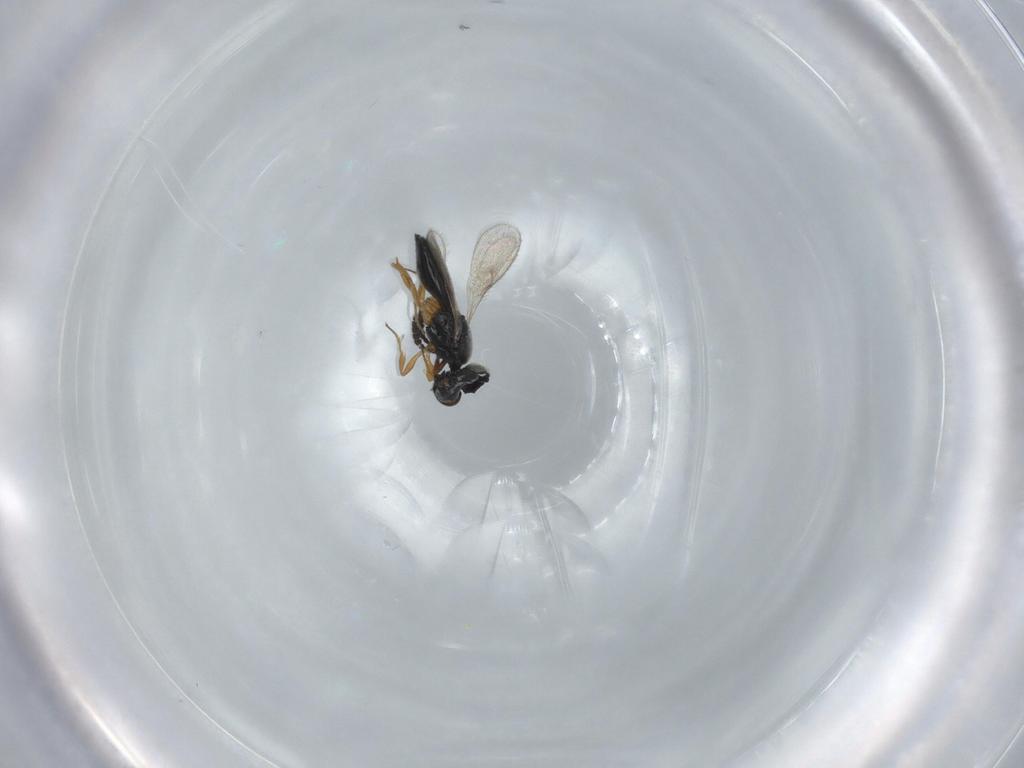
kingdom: Animalia
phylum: Arthropoda
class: Insecta
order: Hymenoptera
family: Scelionidae
